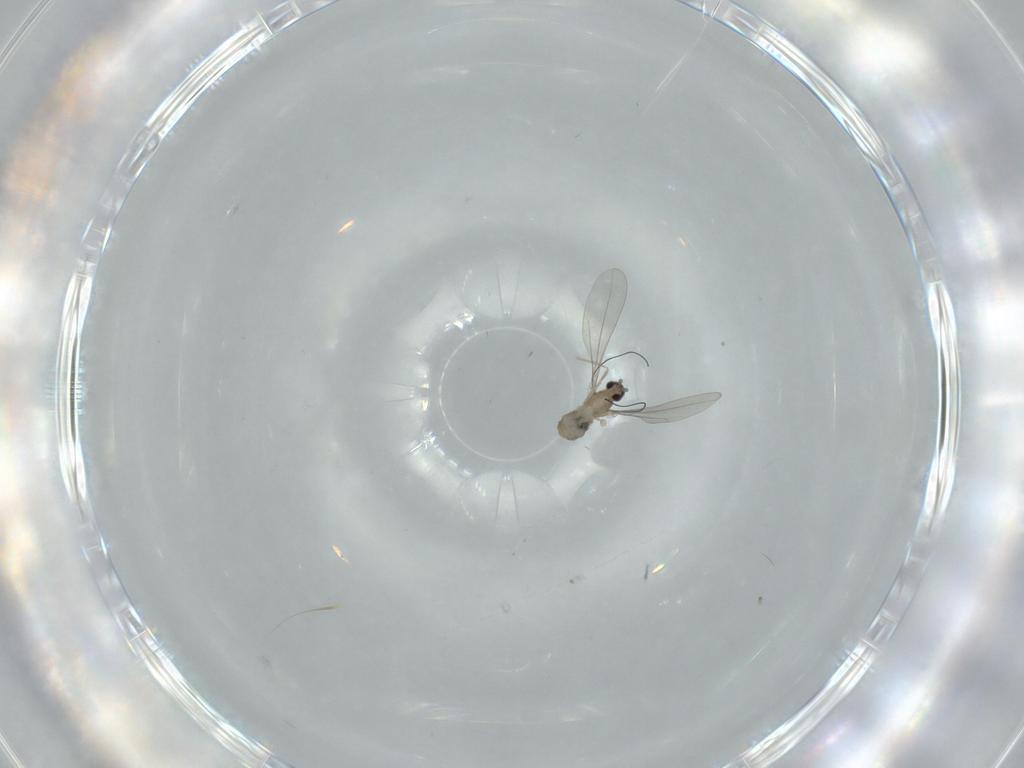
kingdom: Animalia
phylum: Arthropoda
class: Insecta
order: Diptera
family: Cecidomyiidae
